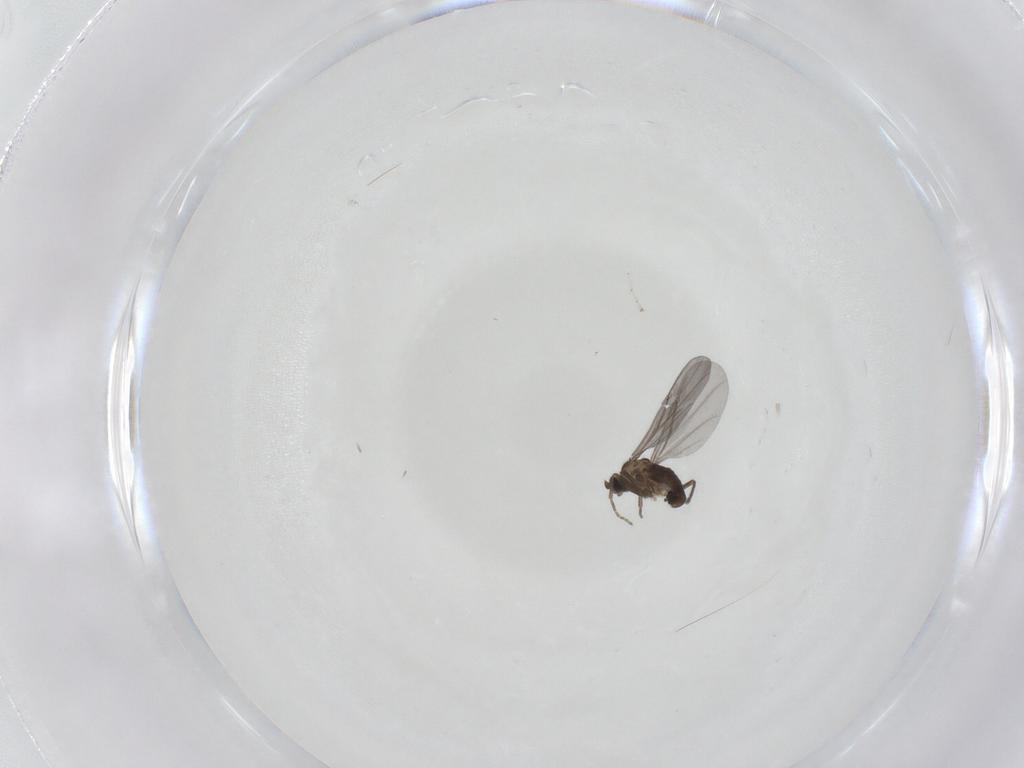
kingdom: Animalia
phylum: Arthropoda
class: Insecta
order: Diptera
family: Phoridae
